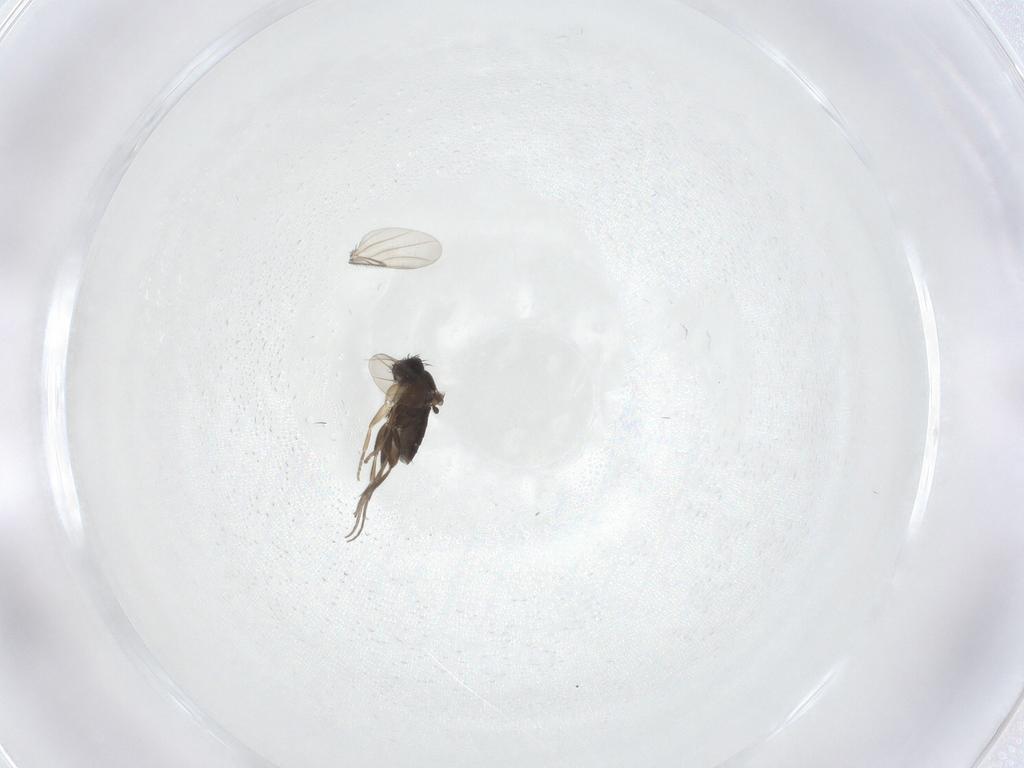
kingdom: Animalia
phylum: Arthropoda
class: Insecta
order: Diptera
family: Phoridae
